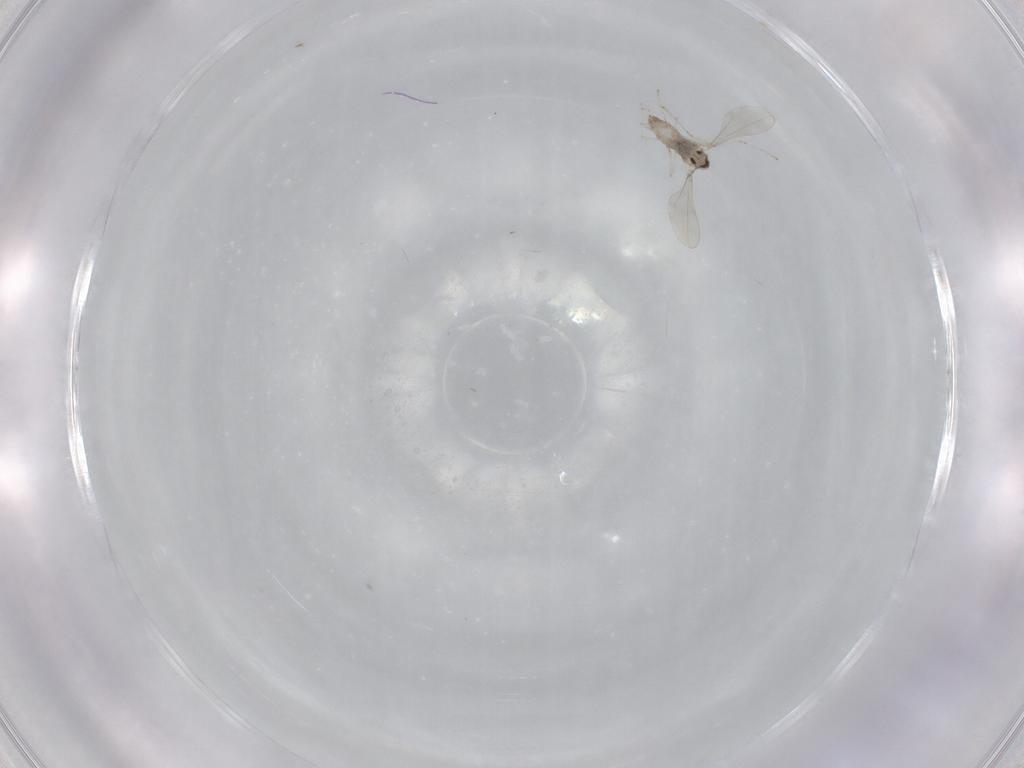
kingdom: Animalia
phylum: Arthropoda
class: Insecta
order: Diptera
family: Cecidomyiidae
